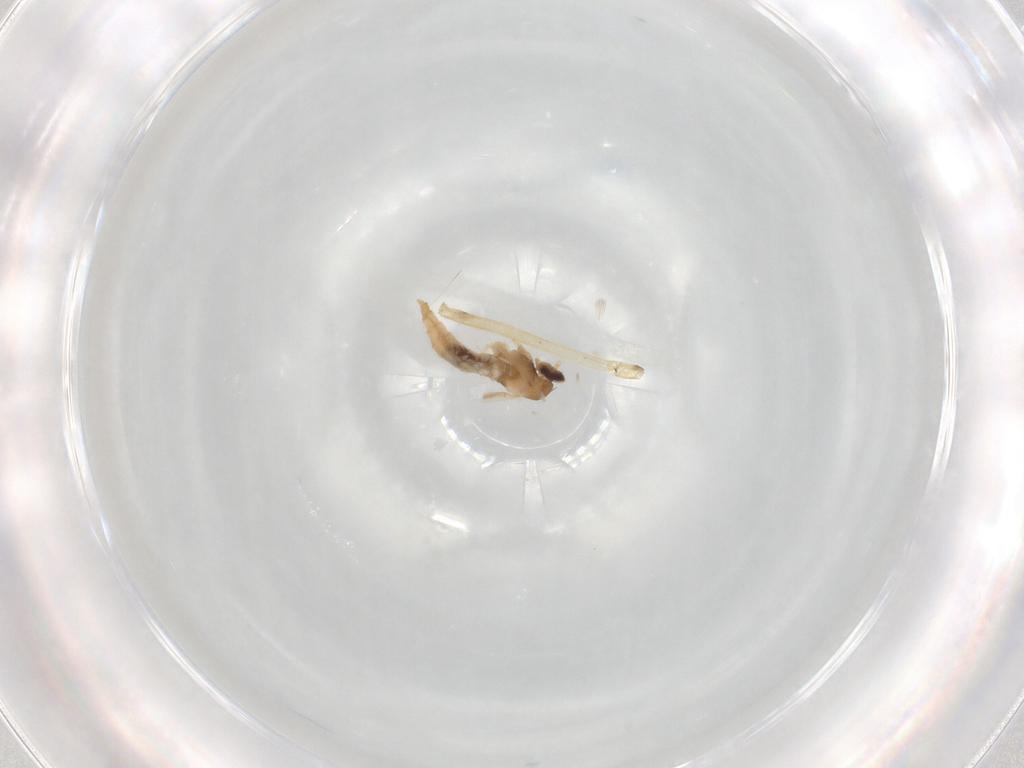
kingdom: Animalia
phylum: Arthropoda
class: Insecta
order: Diptera
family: Cecidomyiidae
